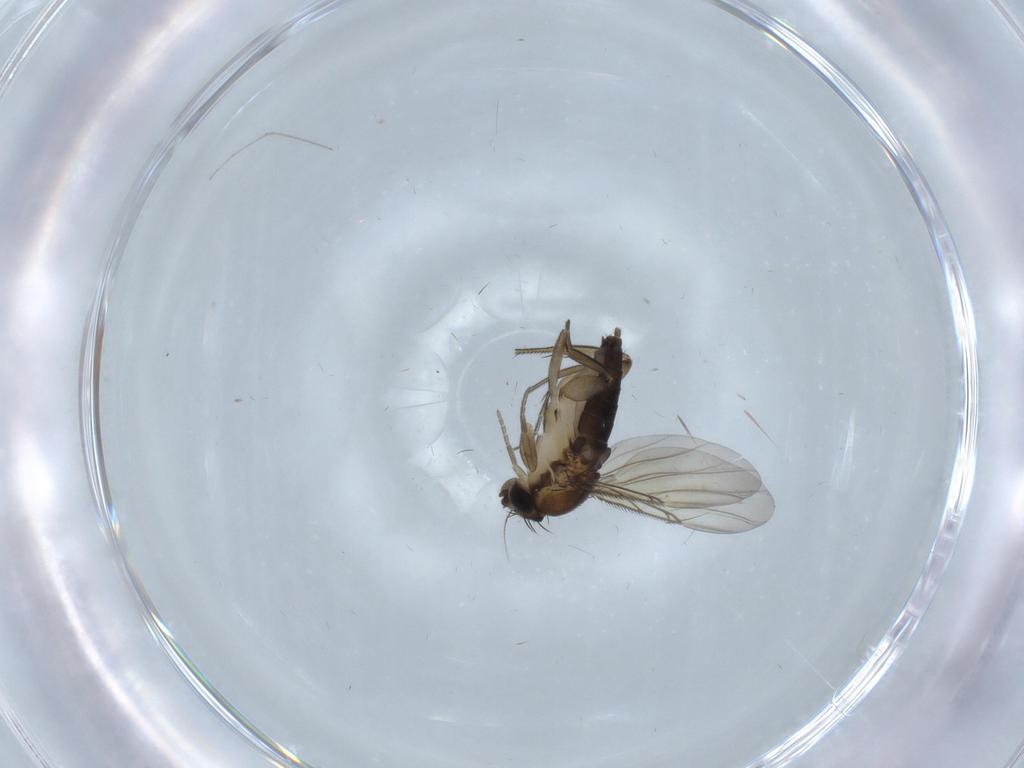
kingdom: Animalia
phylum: Arthropoda
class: Insecta
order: Diptera
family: Phoridae
